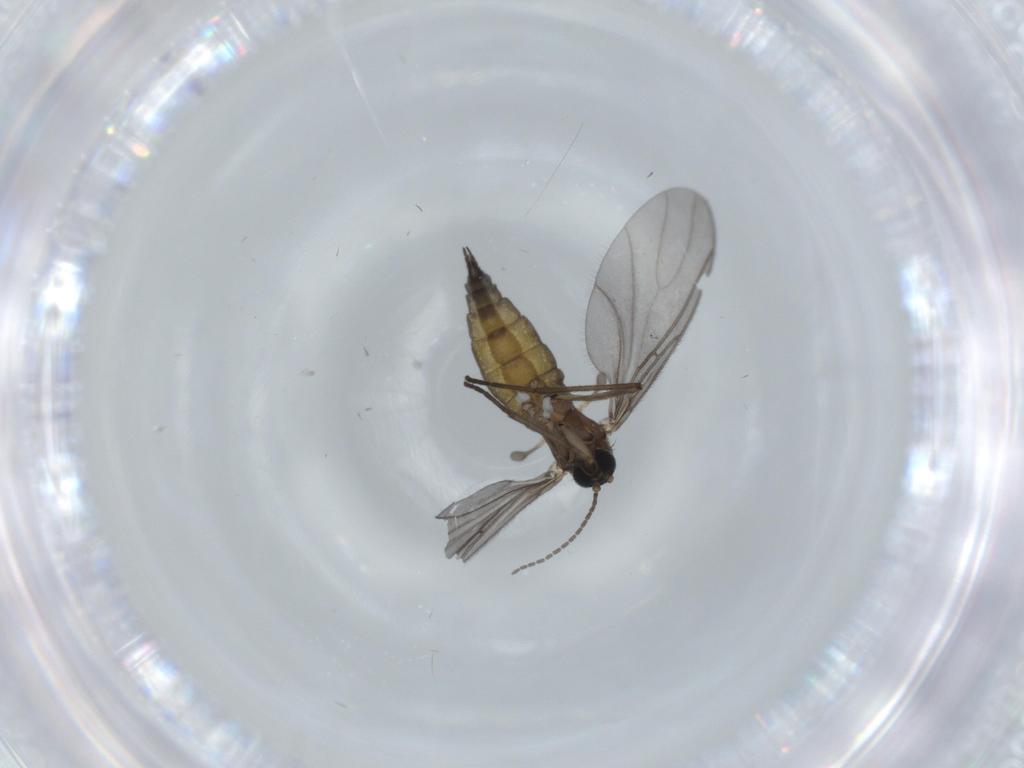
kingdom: Animalia
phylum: Arthropoda
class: Insecta
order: Diptera
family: Sciaridae
